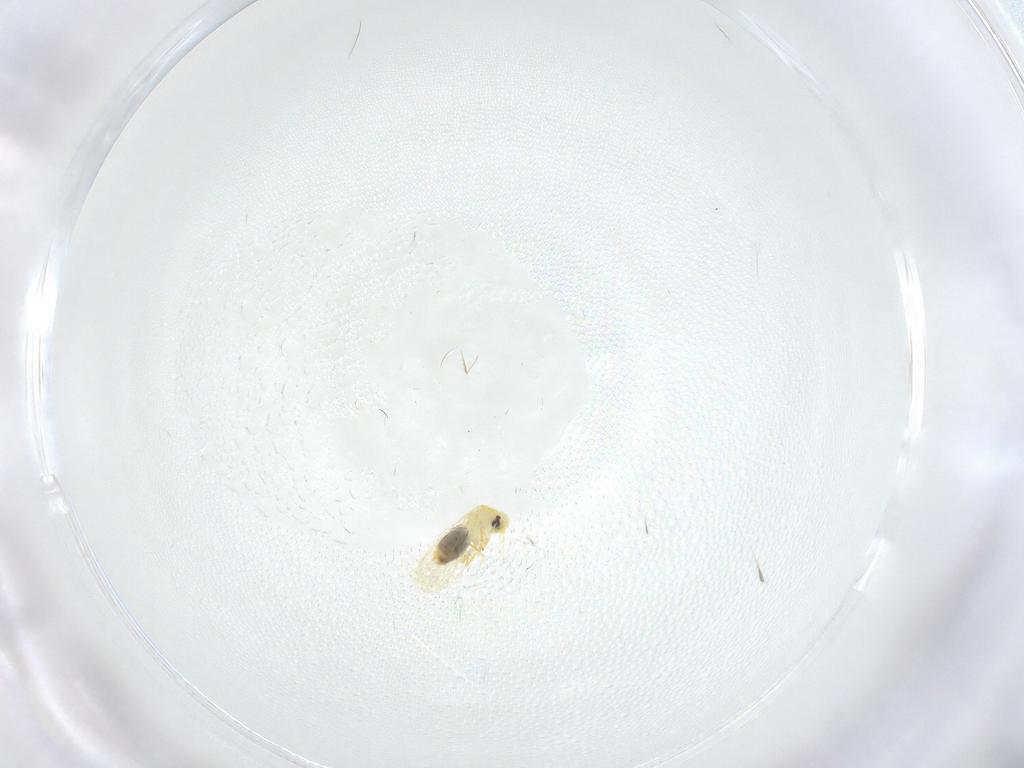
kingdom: Animalia
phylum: Arthropoda
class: Insecta
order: Hemiptera
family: Aleyrodidae
